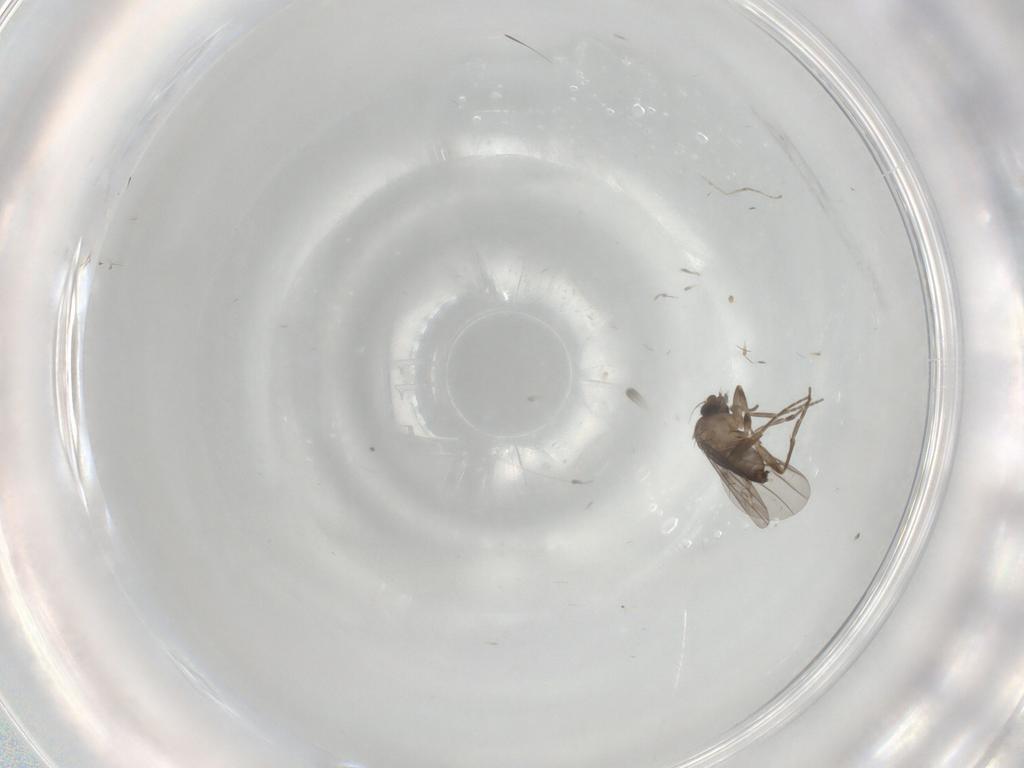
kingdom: Animalia
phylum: Arthropoda
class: Insecta
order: Diptera
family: Cecidomyiidae
